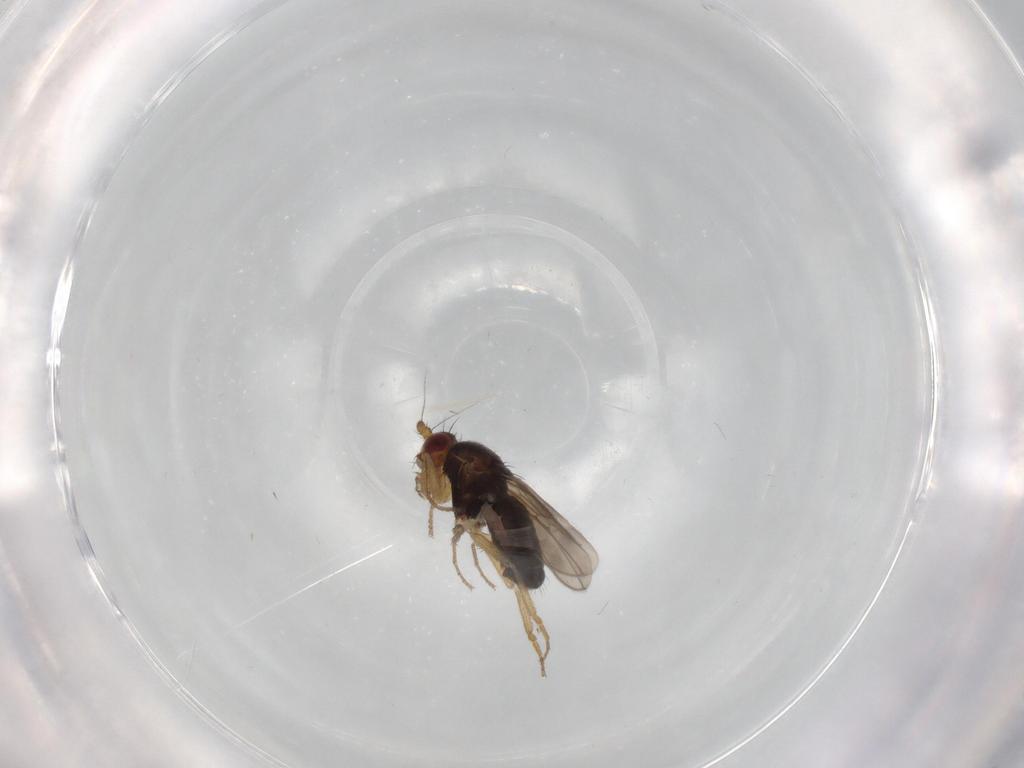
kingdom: Animalia
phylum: Arthropoda
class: Insecta
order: Diptera
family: Sphaeroceridae
